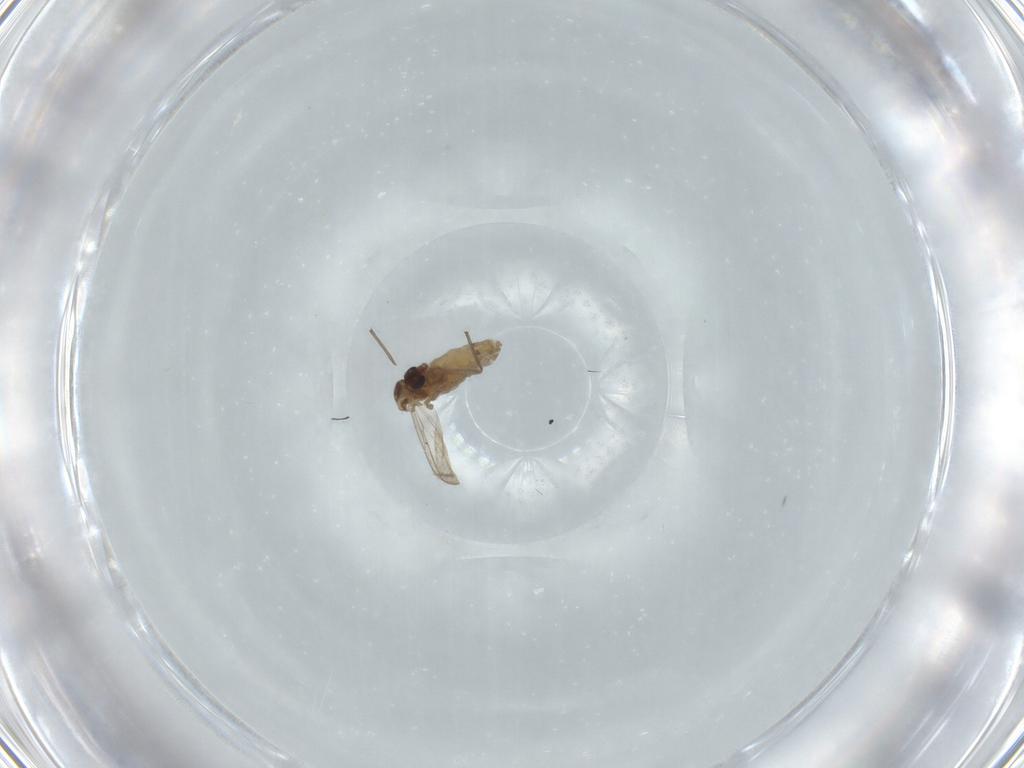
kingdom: Animalia
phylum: Arthropoda
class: Insecta
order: Diptera
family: Chironomidae
